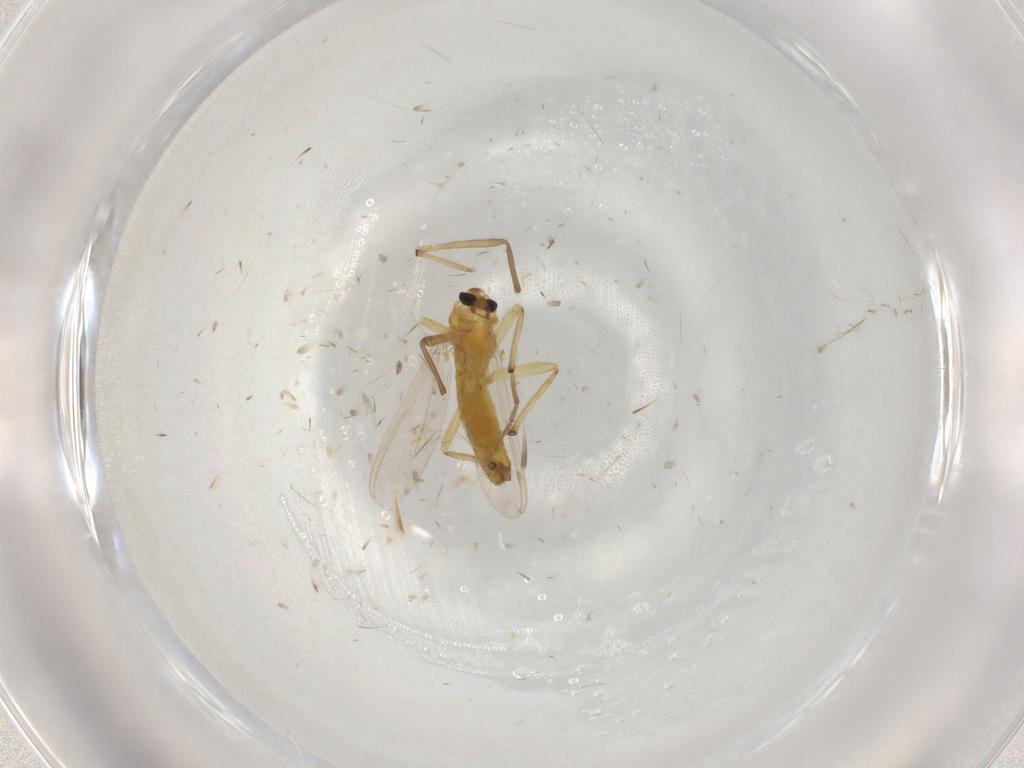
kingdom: Animalia
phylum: Arthropoda
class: Insecta
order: Diptera
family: Chironomidae
